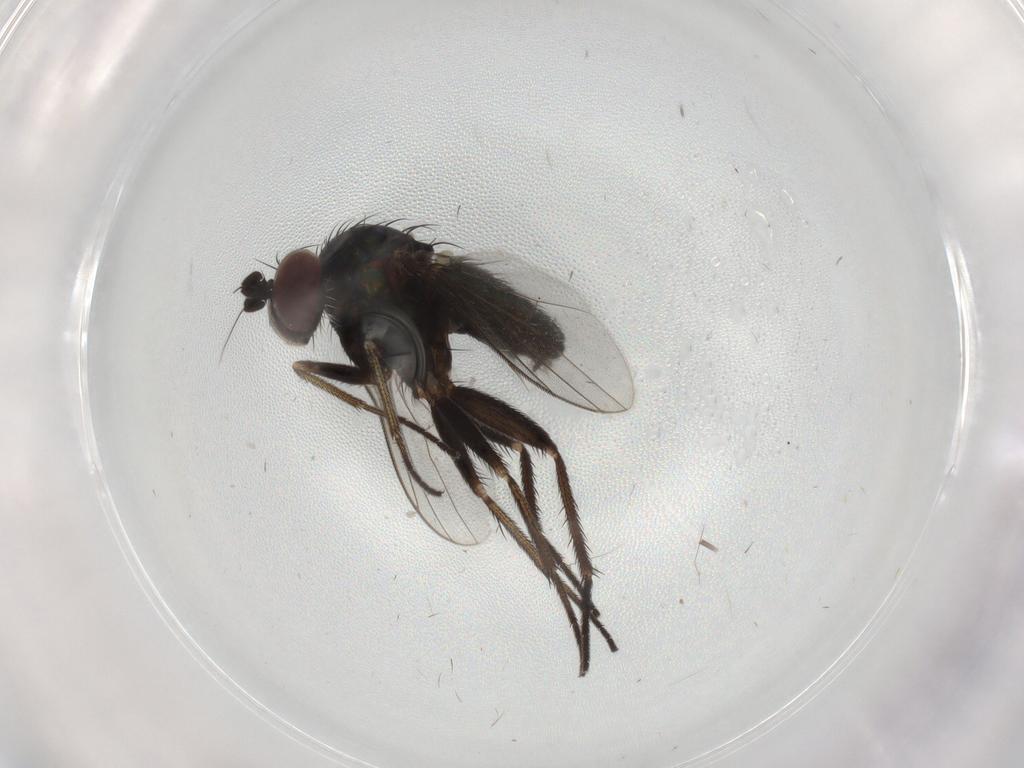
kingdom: Animalia
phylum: Arthropoda
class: Insecta
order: Diptera
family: Dolichopodidae
